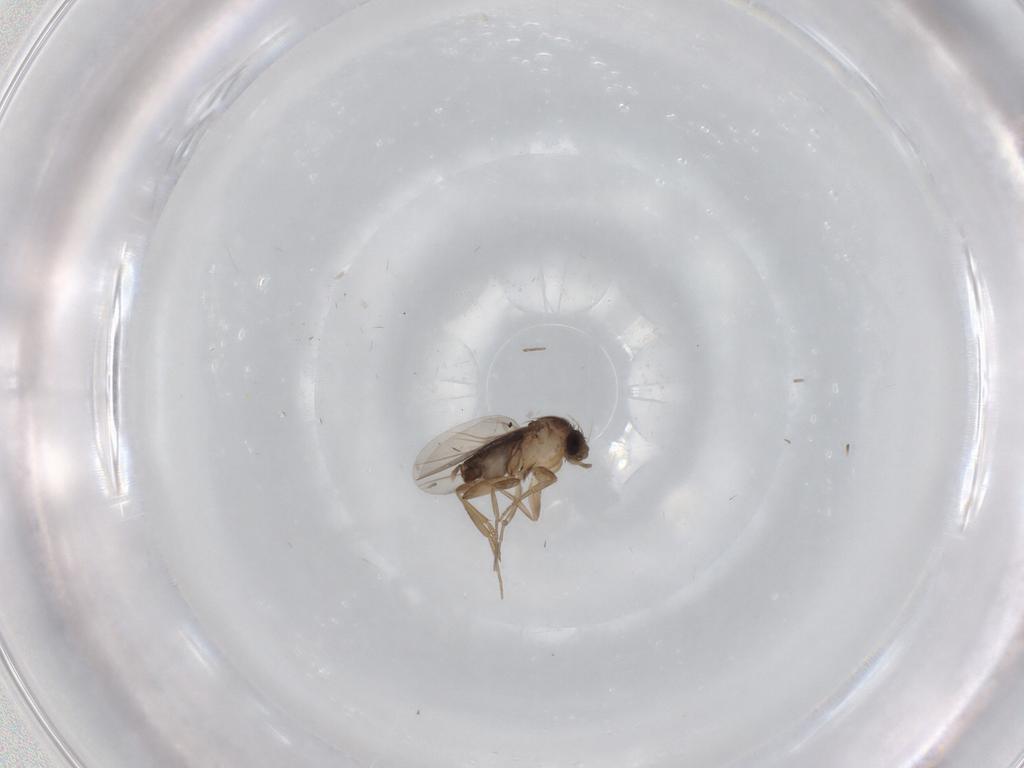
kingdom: Animalia
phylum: Arthropoda
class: Insecta
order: Diptera
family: Phoridae
